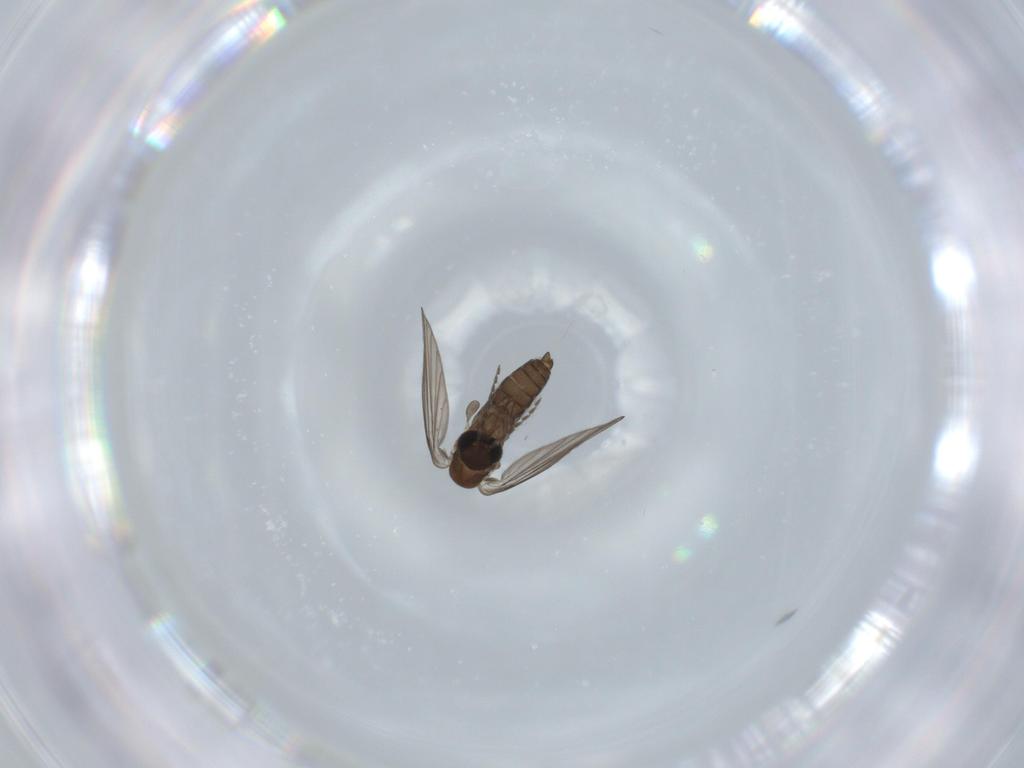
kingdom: Animalia
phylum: Arthropoda
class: Insecta
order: Diptera
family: Psychodidae
